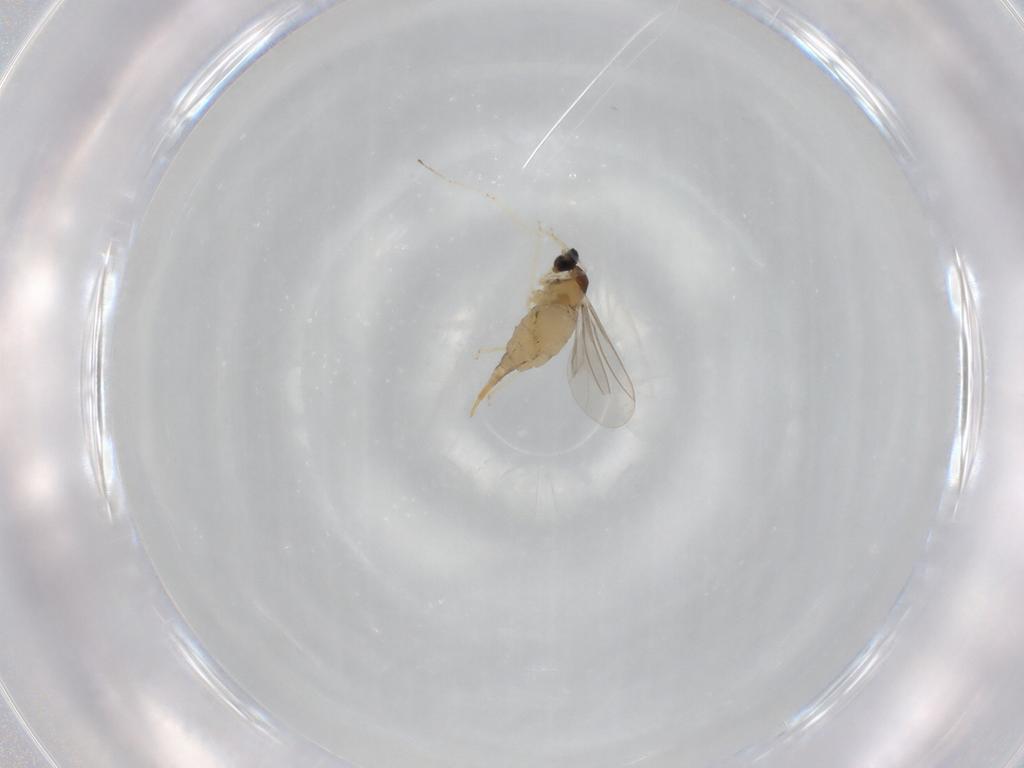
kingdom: Animalia
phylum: Arthropoda
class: Insecta
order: Diptera
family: Cecidomyiidae
